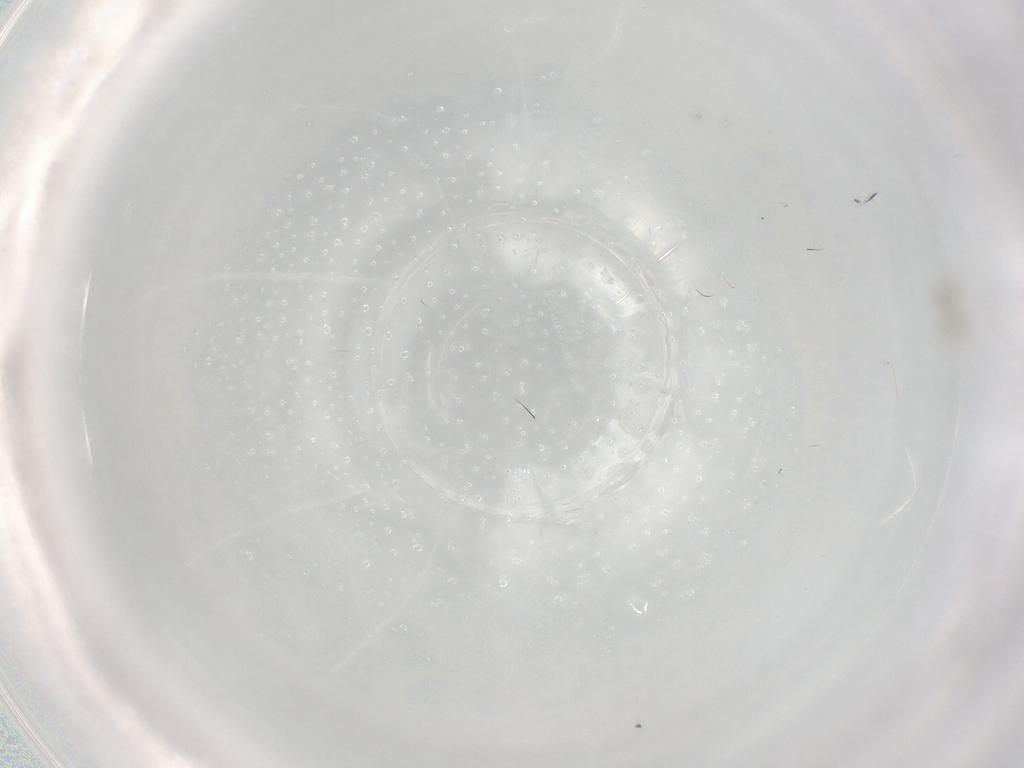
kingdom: Animalia
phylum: Arthropoda
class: Insecta
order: Diptera
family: Cecidomyiidae
